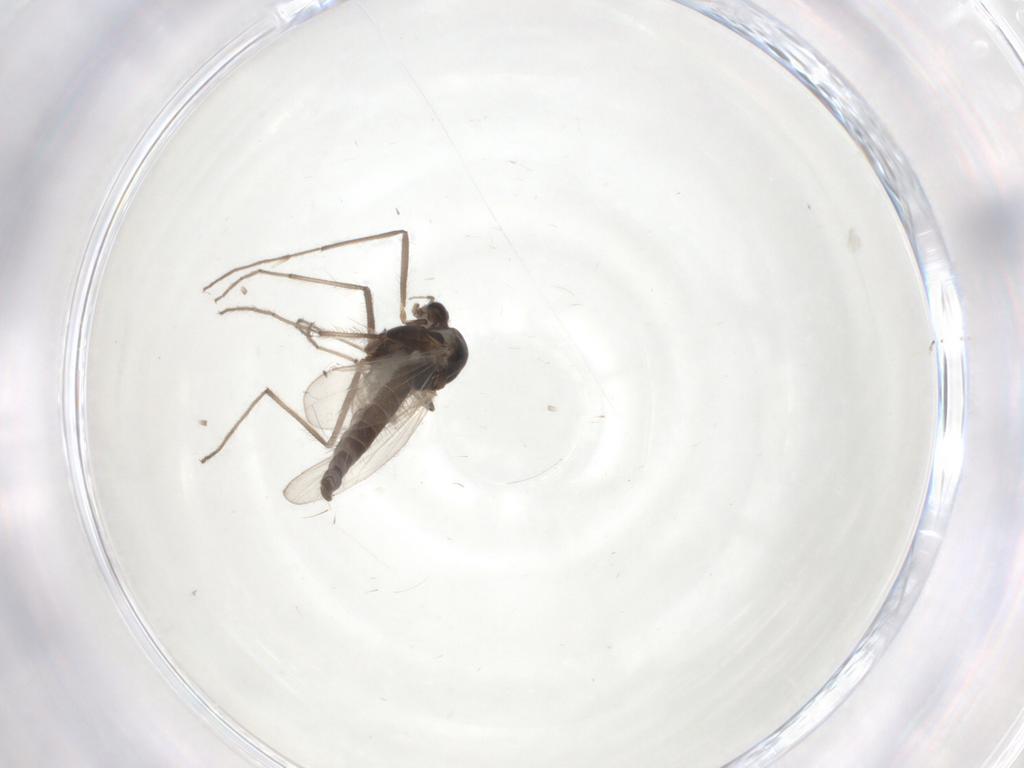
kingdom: Animalia
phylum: Arthropoda
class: Insecta
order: Diptera
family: Chironomidae
